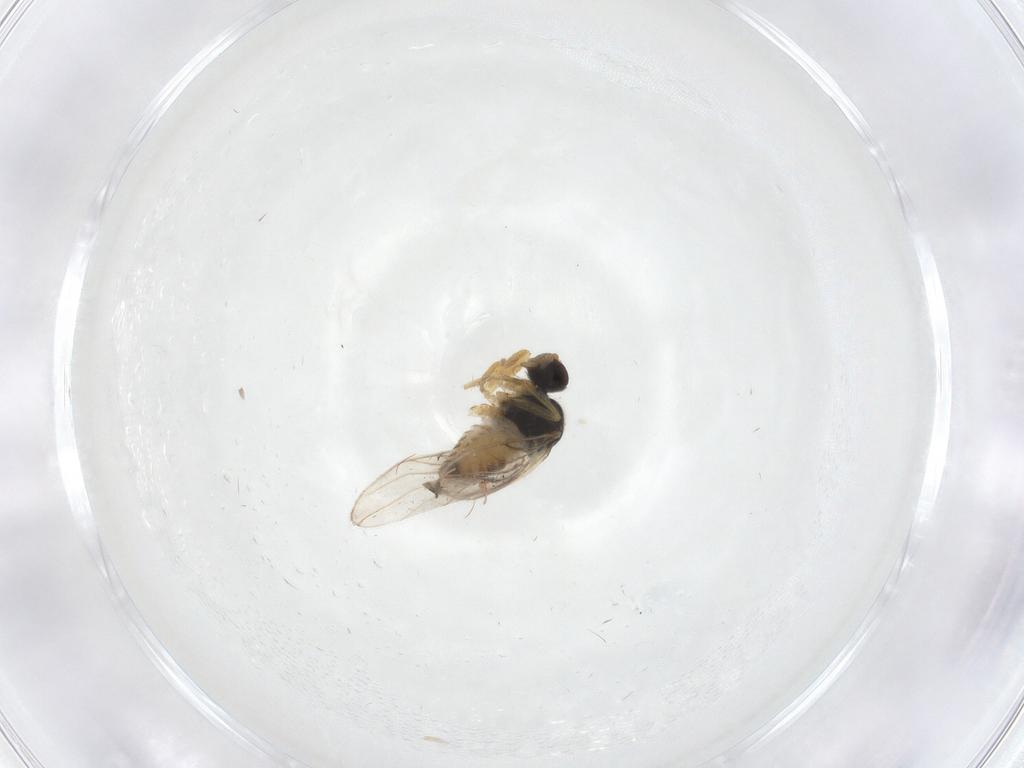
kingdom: Animalia
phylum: Arthropoda
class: Insecta
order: Diptera
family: Hybotidae
